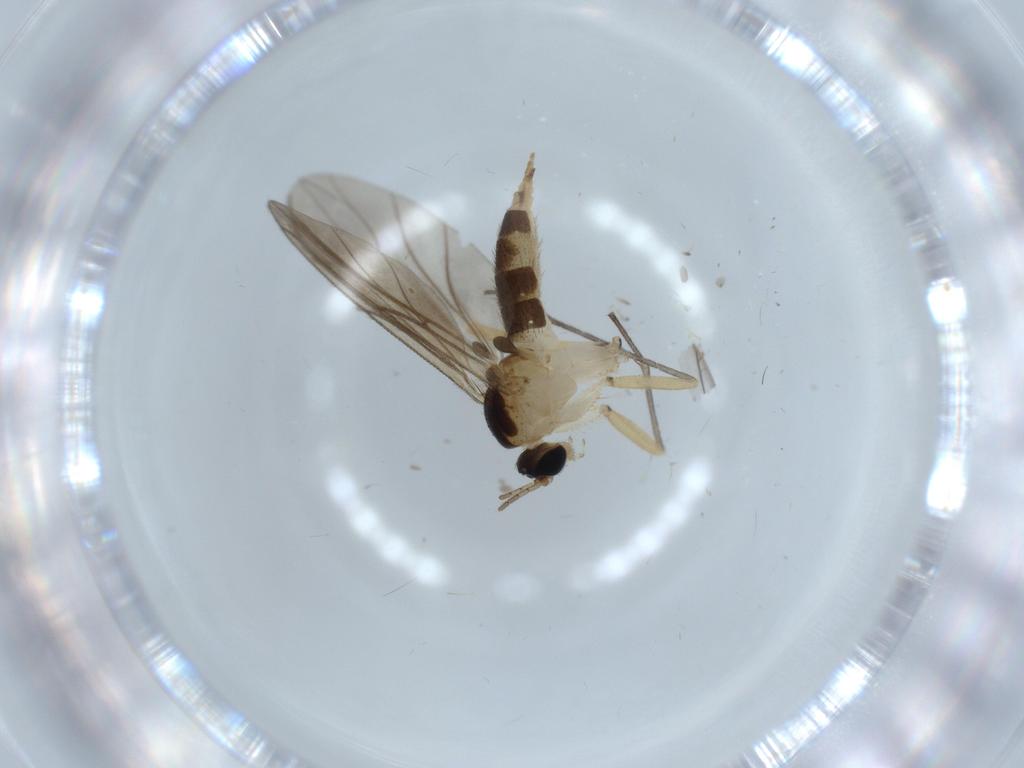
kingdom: Animalia
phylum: Arthropoda
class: Insecta
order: Diptera
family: Sciaridae
